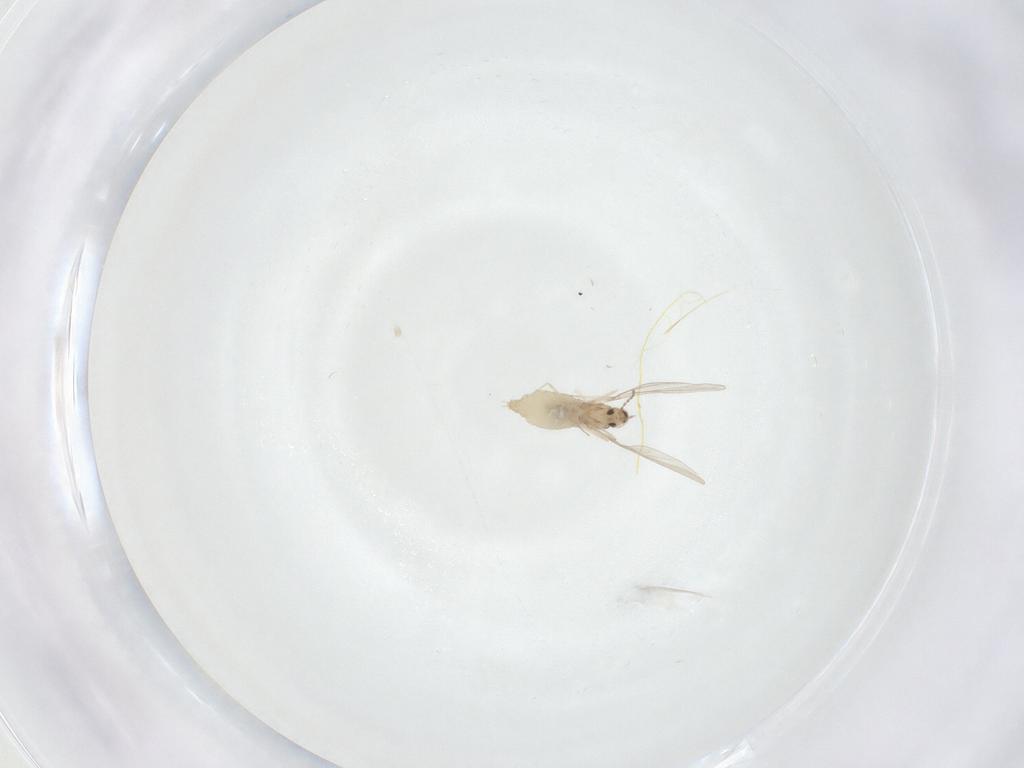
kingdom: Animalia
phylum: Arthropoda
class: Insecta
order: Diptera
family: Cecidomyiidae
